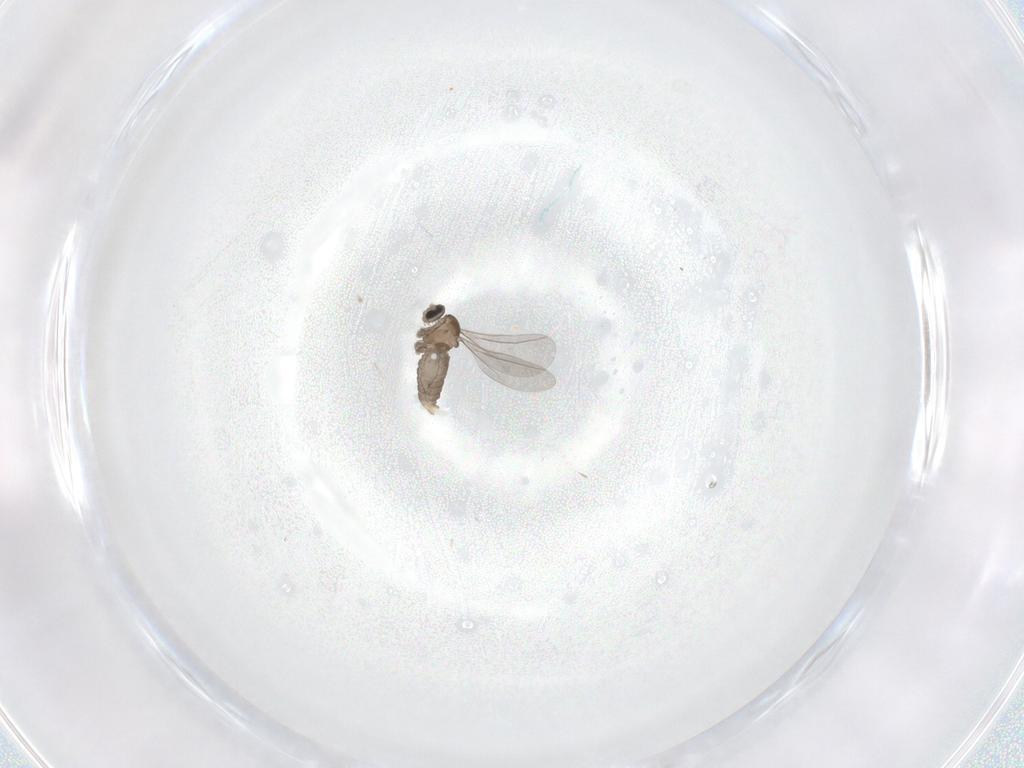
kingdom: Animalia
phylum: Arthropoda
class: Insecta
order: Diptera
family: Cecidomyiidae
